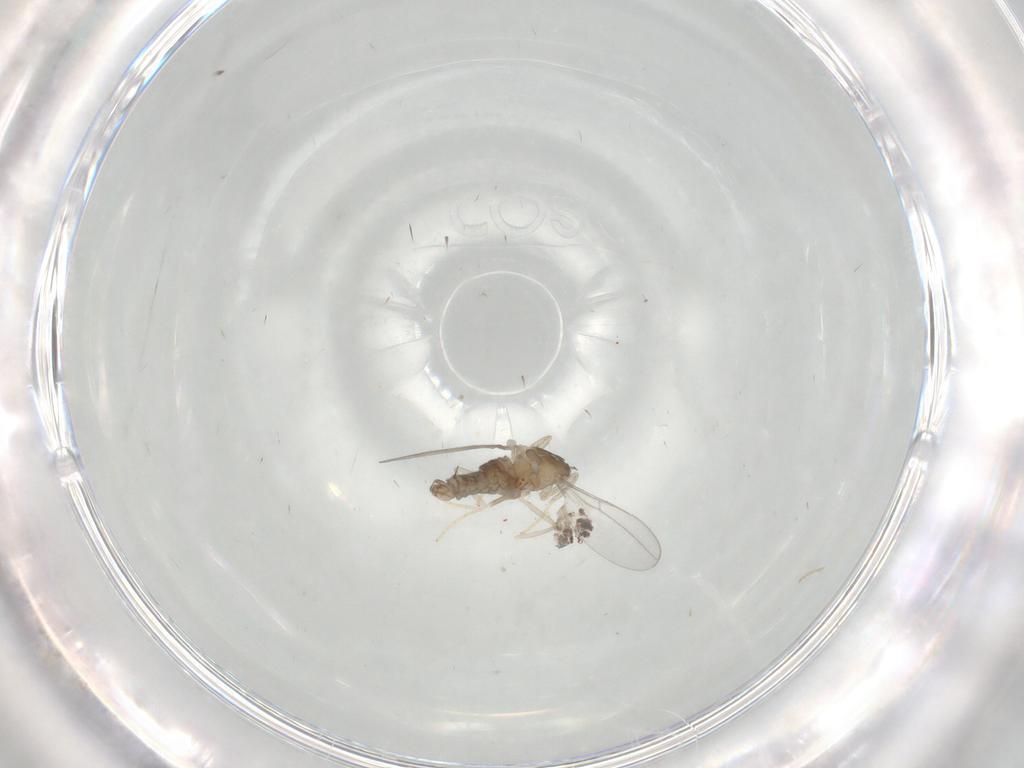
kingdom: Animalia
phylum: Arthropoda
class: Insecta
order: Diptera
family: Cecidomyiidae
